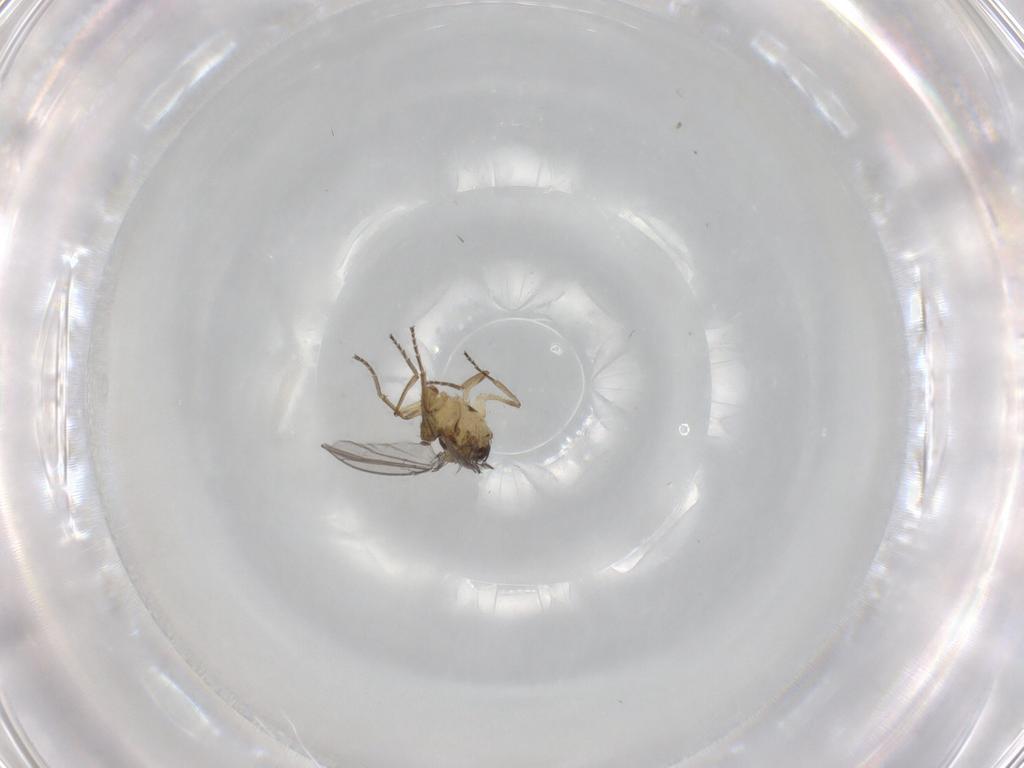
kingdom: Animalia
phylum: Arthropoda
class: Insecta
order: Diptera
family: Agromyzidae
